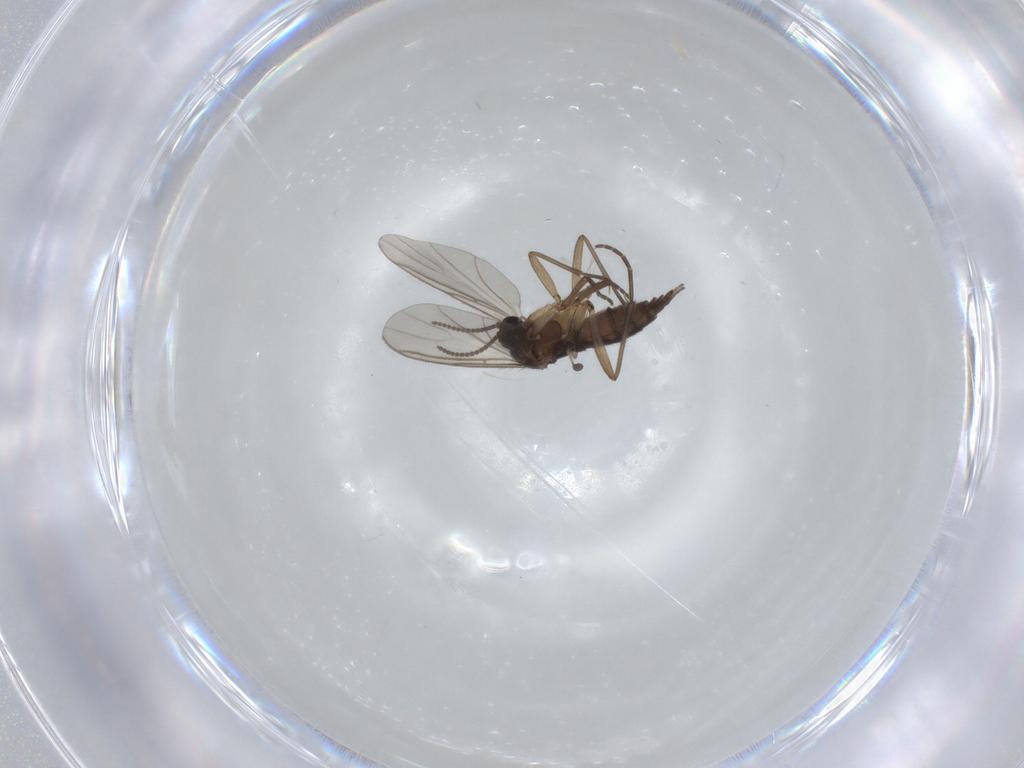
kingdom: Animalia
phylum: Arthropoda
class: Insecta
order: Diptera
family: Sciaridae
